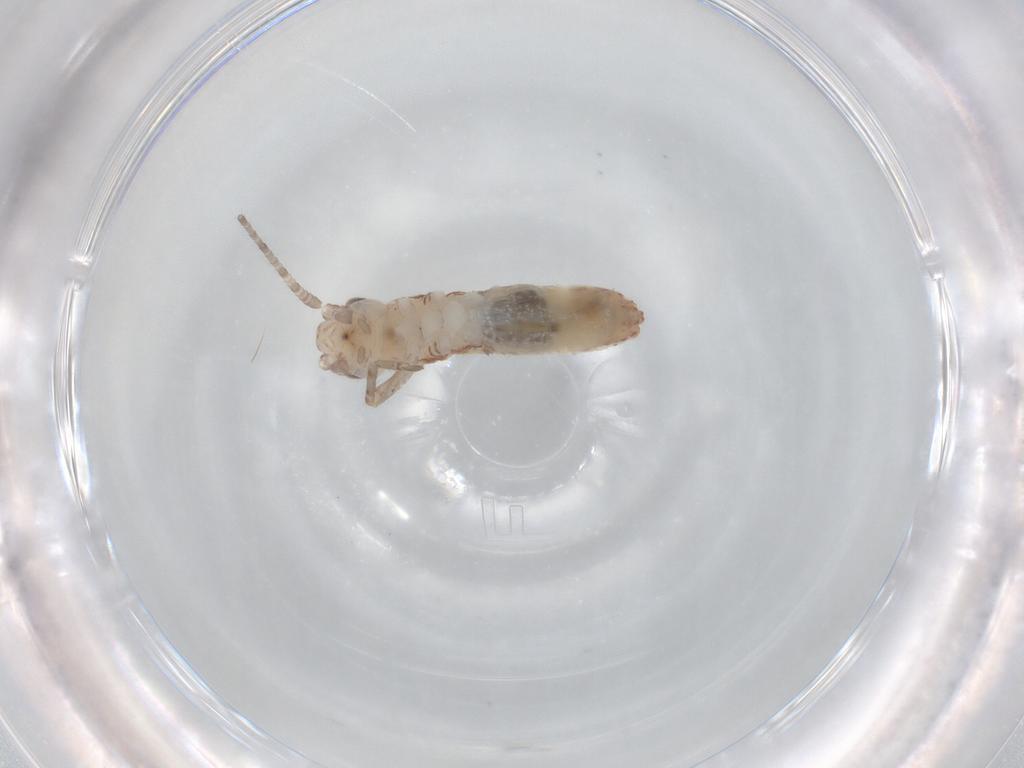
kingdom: Animalia
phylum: Arthropoda
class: Insecta
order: Orthoptera
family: Mogoplistidae
